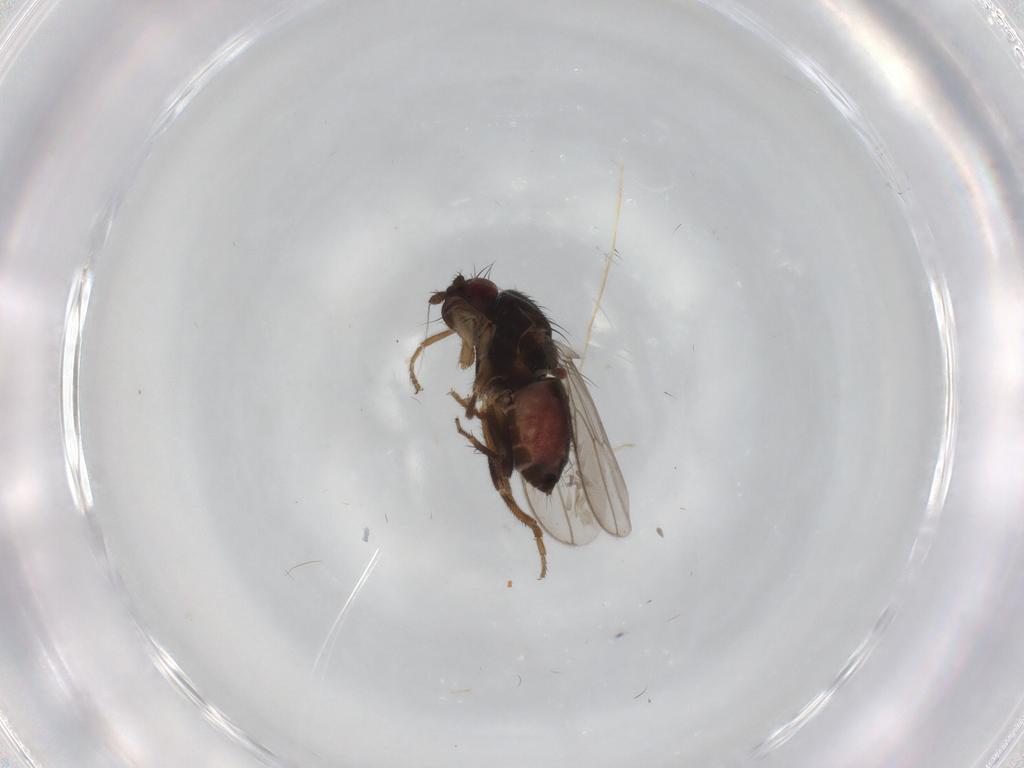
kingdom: Animalia
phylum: Arthropoda
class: Insecta
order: Diptera
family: Sphaeroceridae
